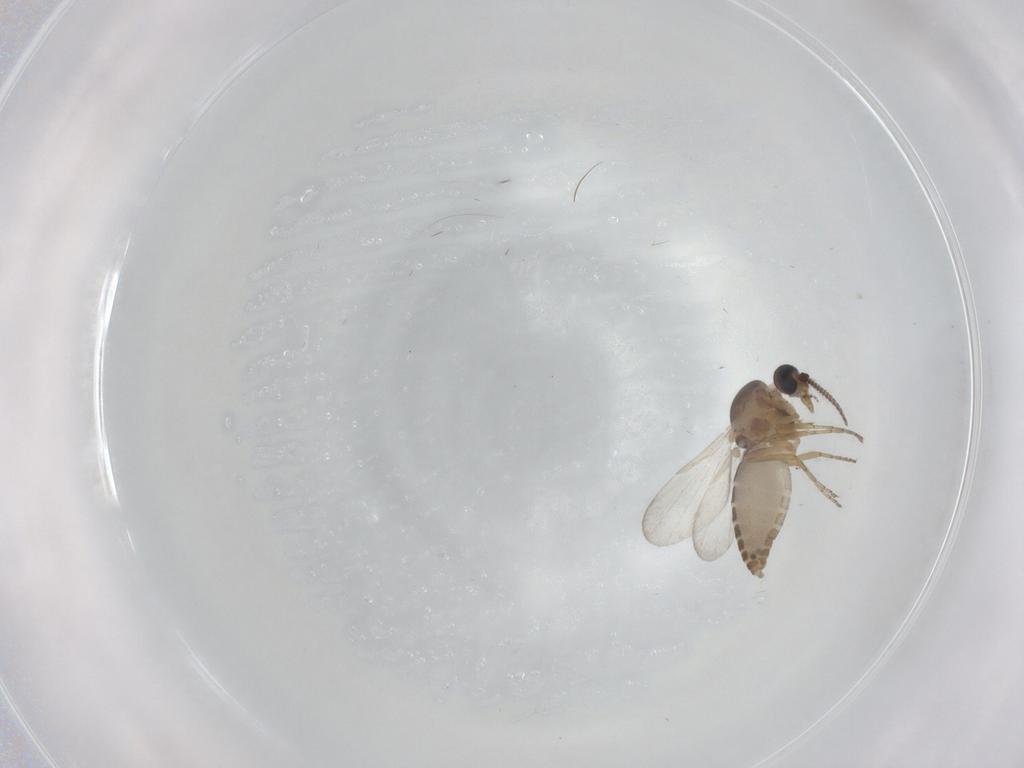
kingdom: Animalia
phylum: Arthropoda
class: Insecta
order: Diptera
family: Ceratopogonidae
